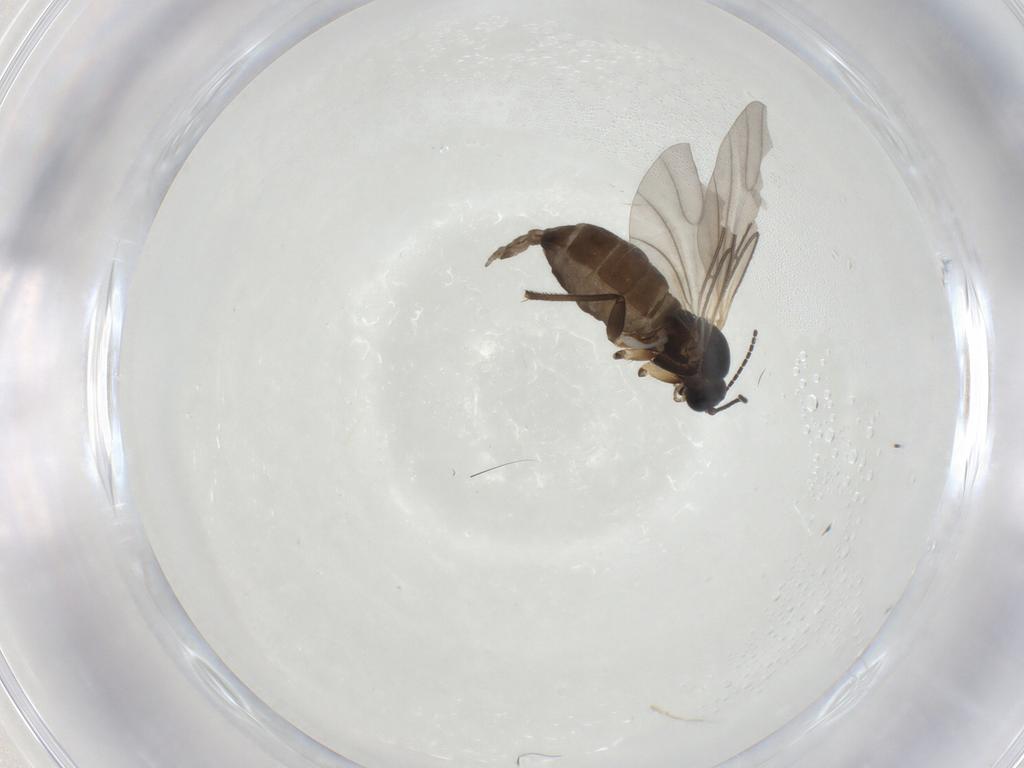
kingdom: Animalia
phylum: Arthropoda
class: Insecta
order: Diptera
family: Sciaridae
